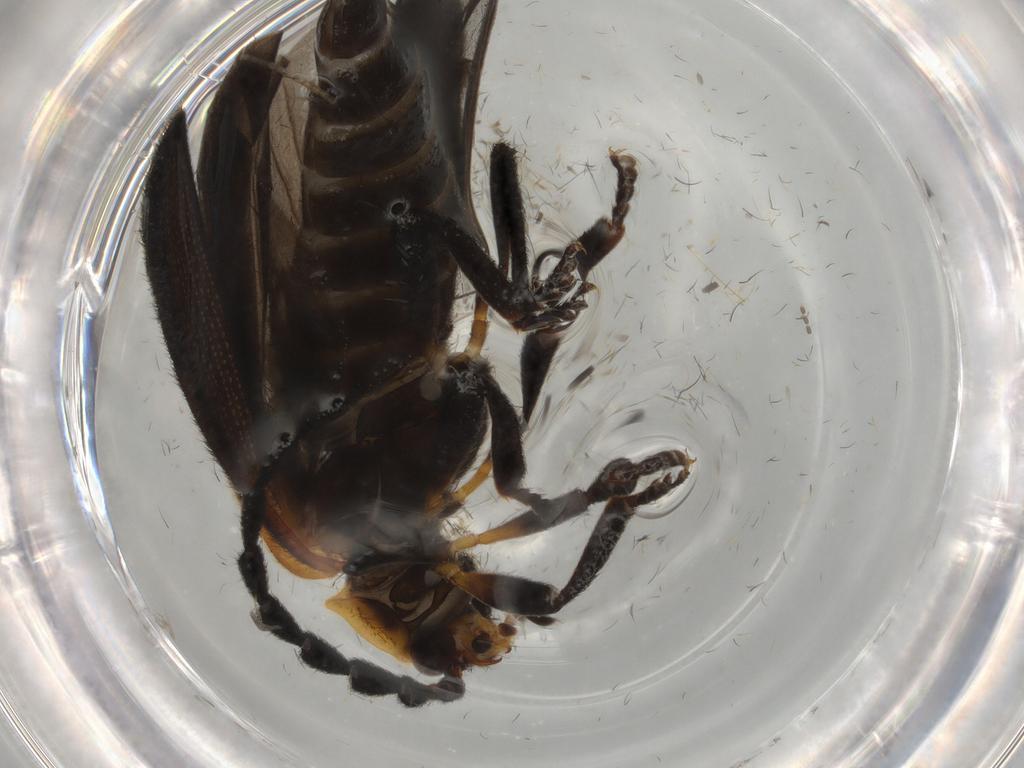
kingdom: Animalia
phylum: Arthropoda
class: Insecta
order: Coleoptera
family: Lycidae
